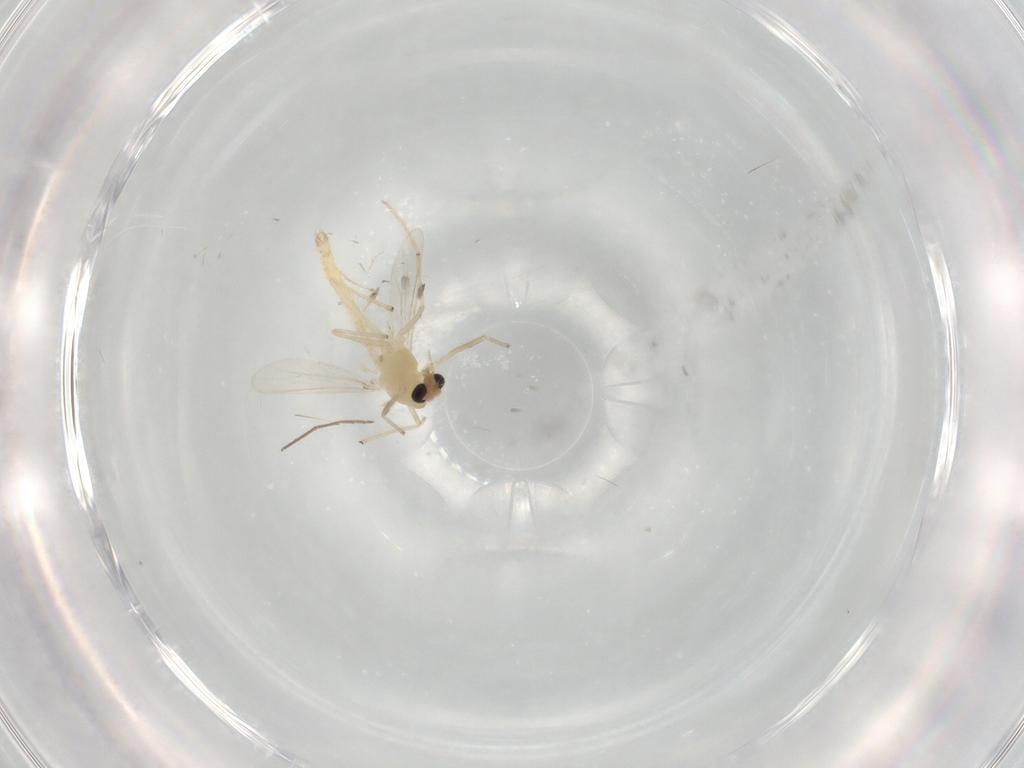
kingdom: Animalia
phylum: Arthropoda
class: Insecta
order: Diptera
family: Chironomidae
